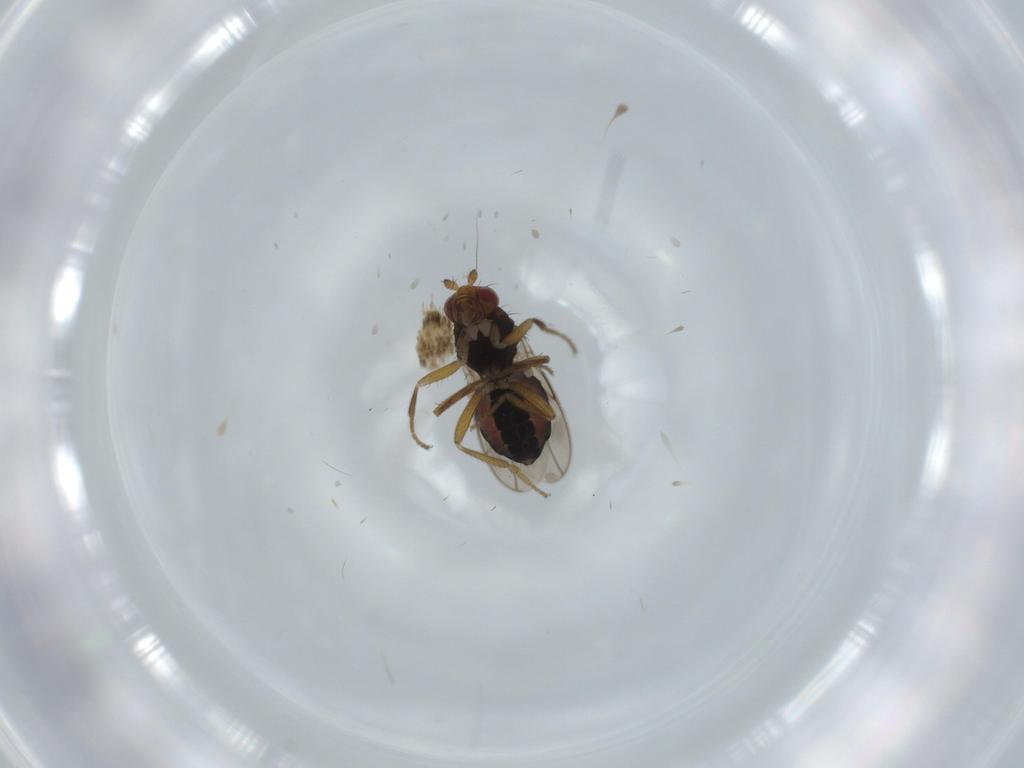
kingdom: Animalia
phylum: Arthropoda
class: Insecta
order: Diptera
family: Sphaeroceridae
